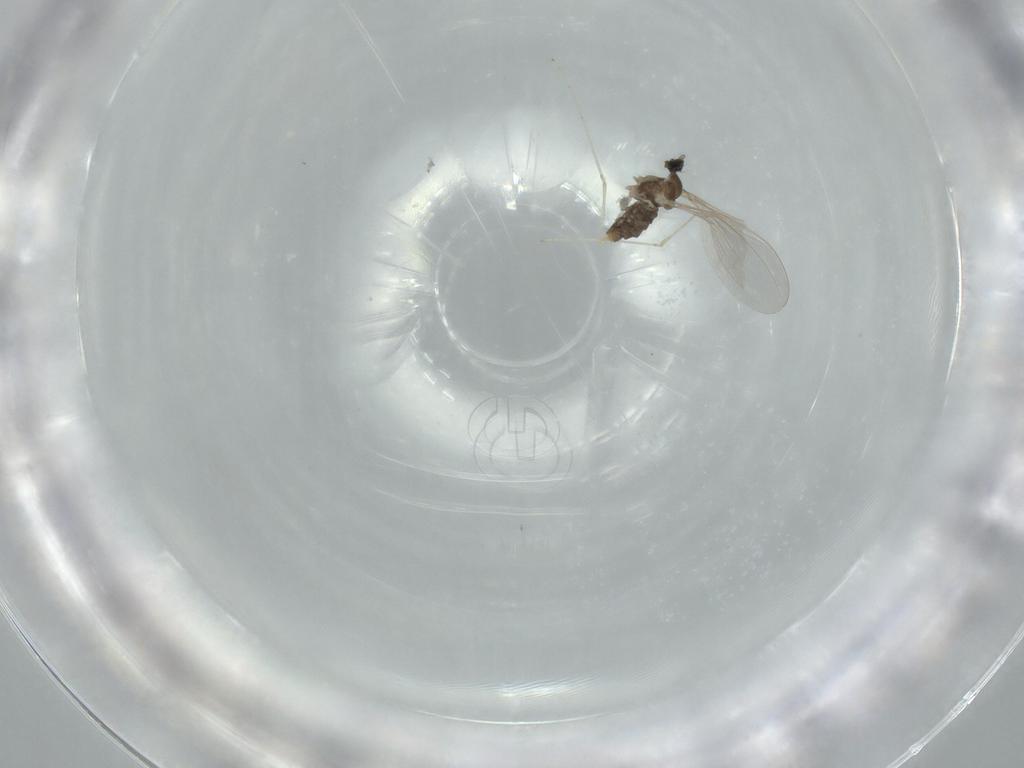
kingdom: Animalia
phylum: Arthropoda
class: Insecta
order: Diptera
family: Cecidomyiidae
